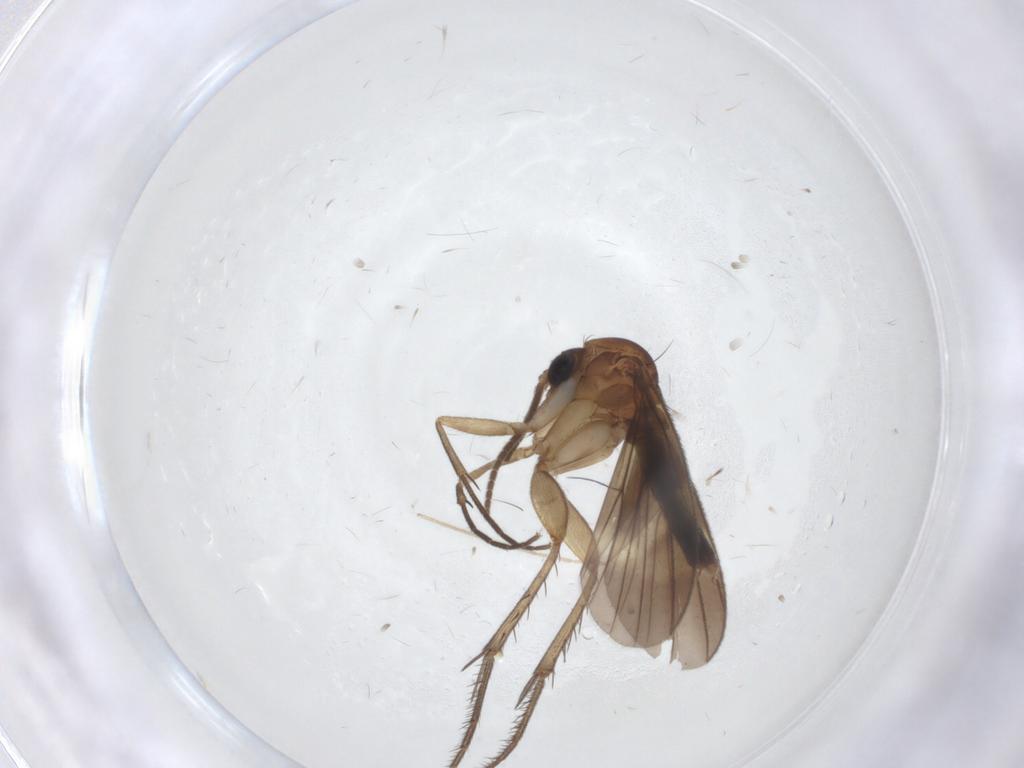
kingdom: Animalia
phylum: Arthropoda
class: Insecta
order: Diptera
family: Mycetophilidae
